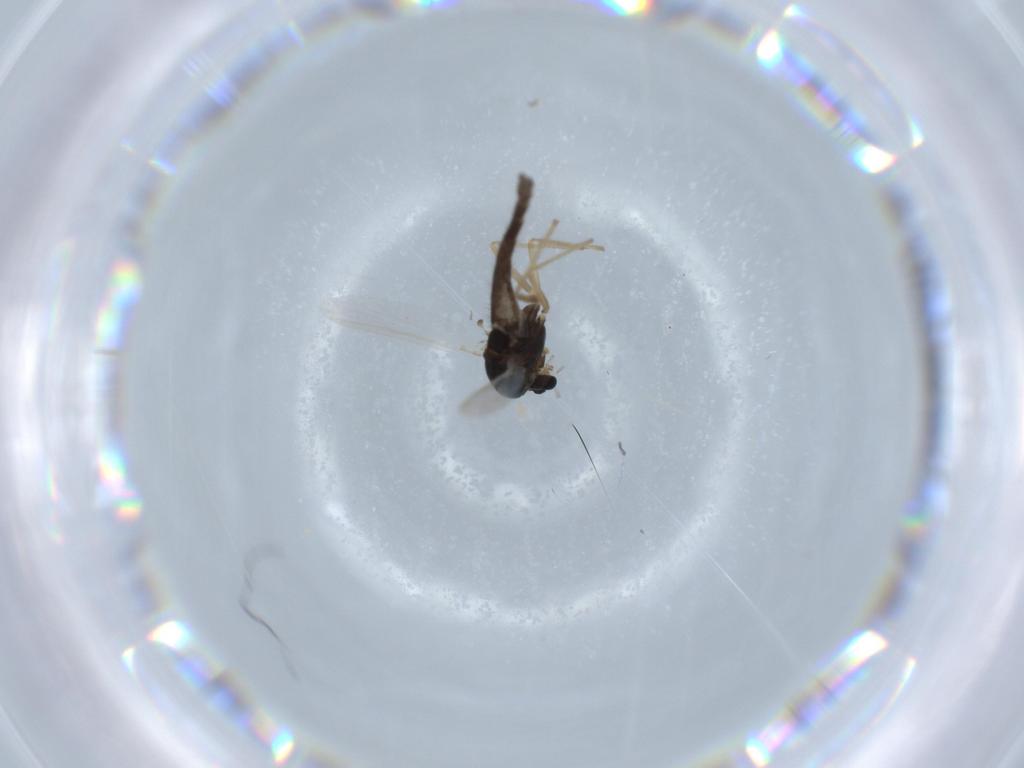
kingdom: Animalia
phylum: Arthropoda
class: Insecta
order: Diptera
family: Chironomidae
